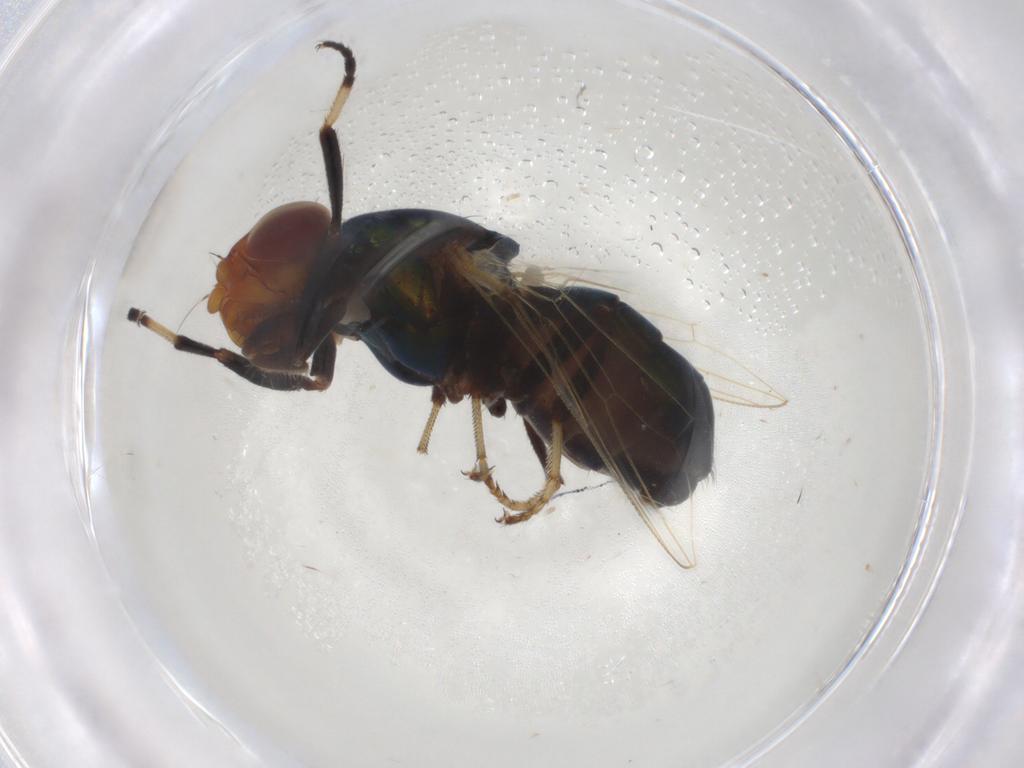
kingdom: Animalia
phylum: Arthropoda
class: Insecta
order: Diptera
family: Ulidiidae
